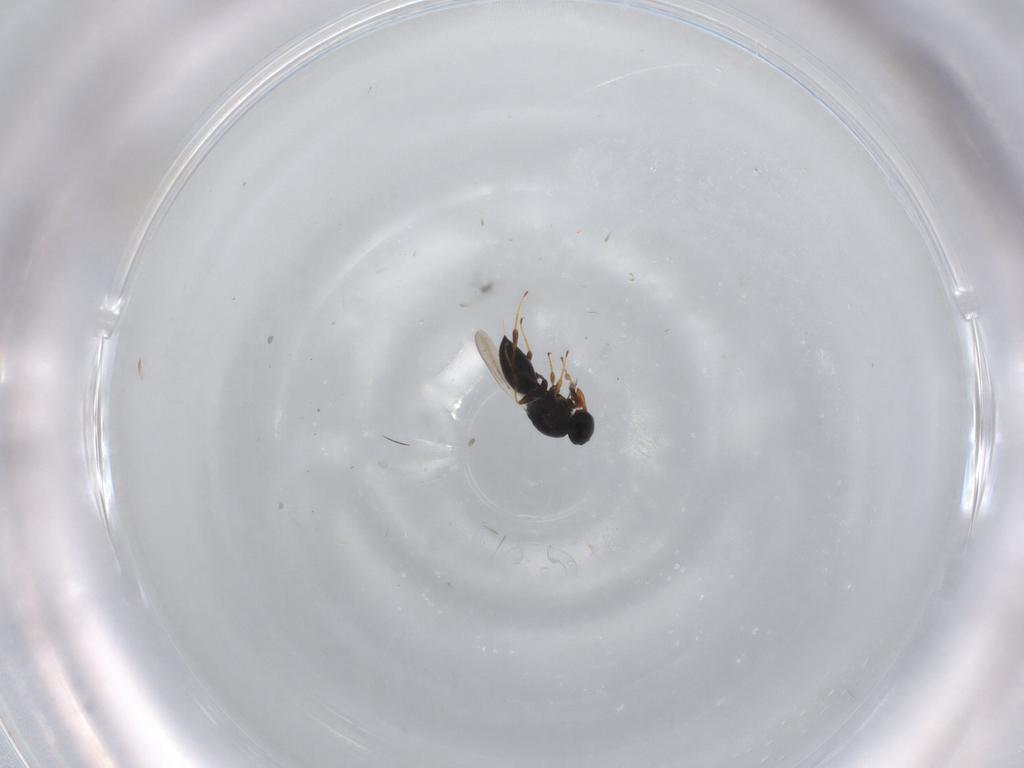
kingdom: Animalia
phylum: Arthropoda
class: Insecta
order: Hymenoptera
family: Platygastridae
